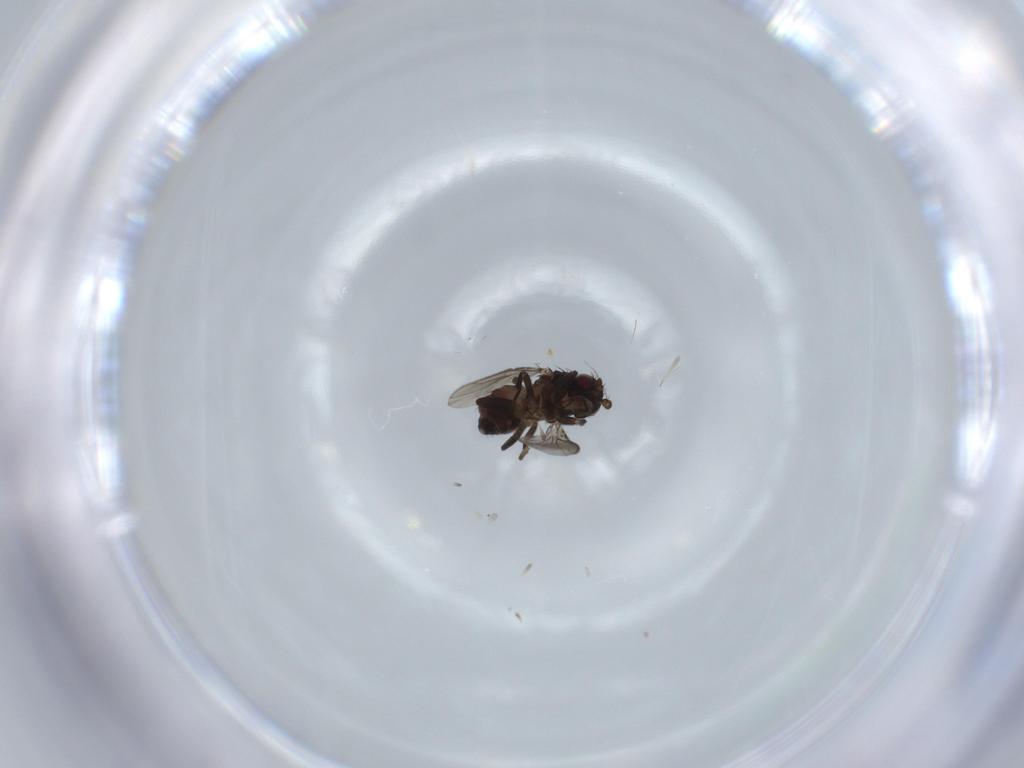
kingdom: Animalia
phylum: Arthropoda
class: Insecta
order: Diptera
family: Sphaeroceridae
